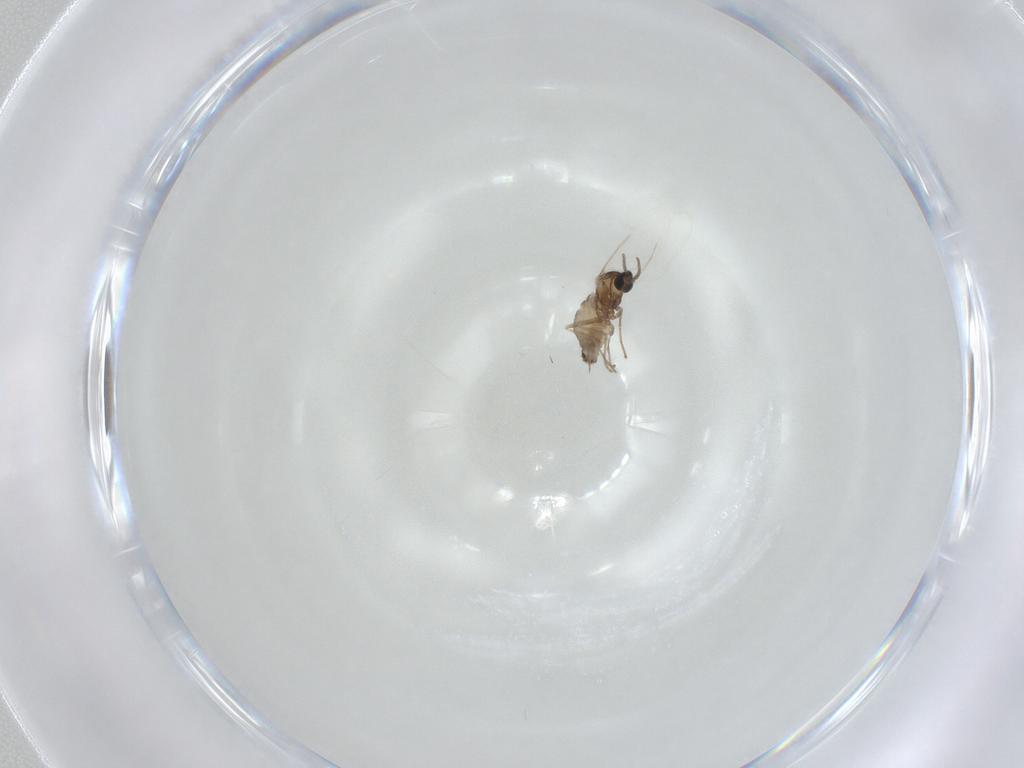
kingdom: Animalia
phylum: Arthropoda
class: Insecta
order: Diptera
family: Cecidomyiidae
